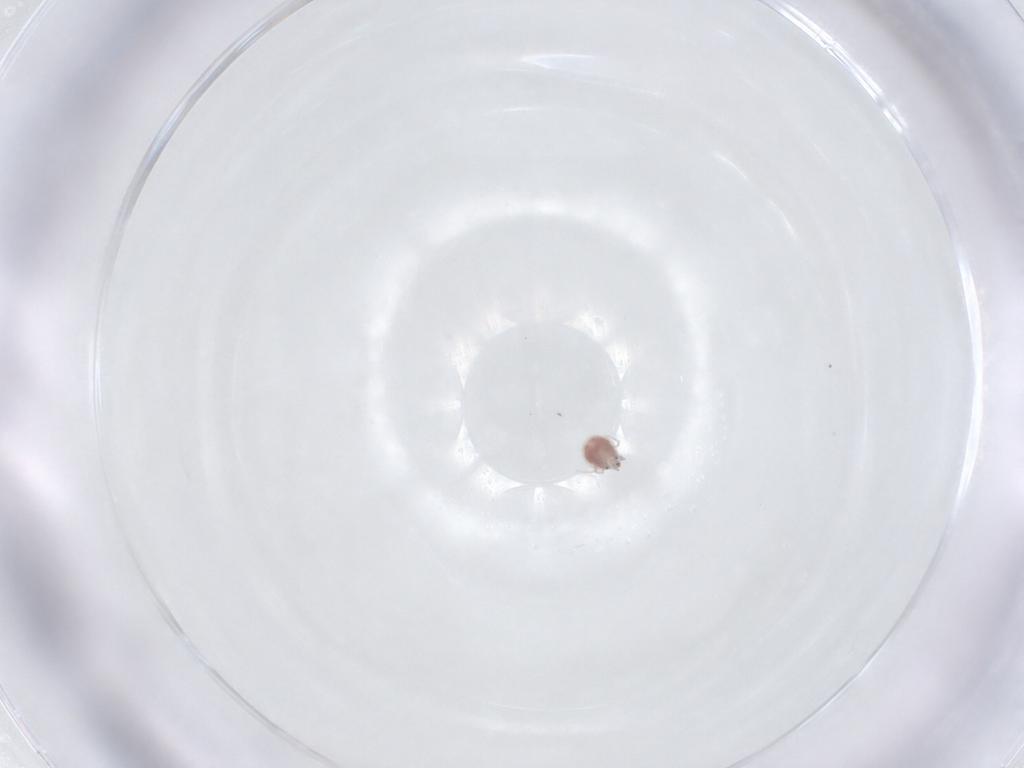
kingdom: Animalia
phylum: Arthropoda
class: Arachnida
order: Trombidiformes
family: Pionidae
